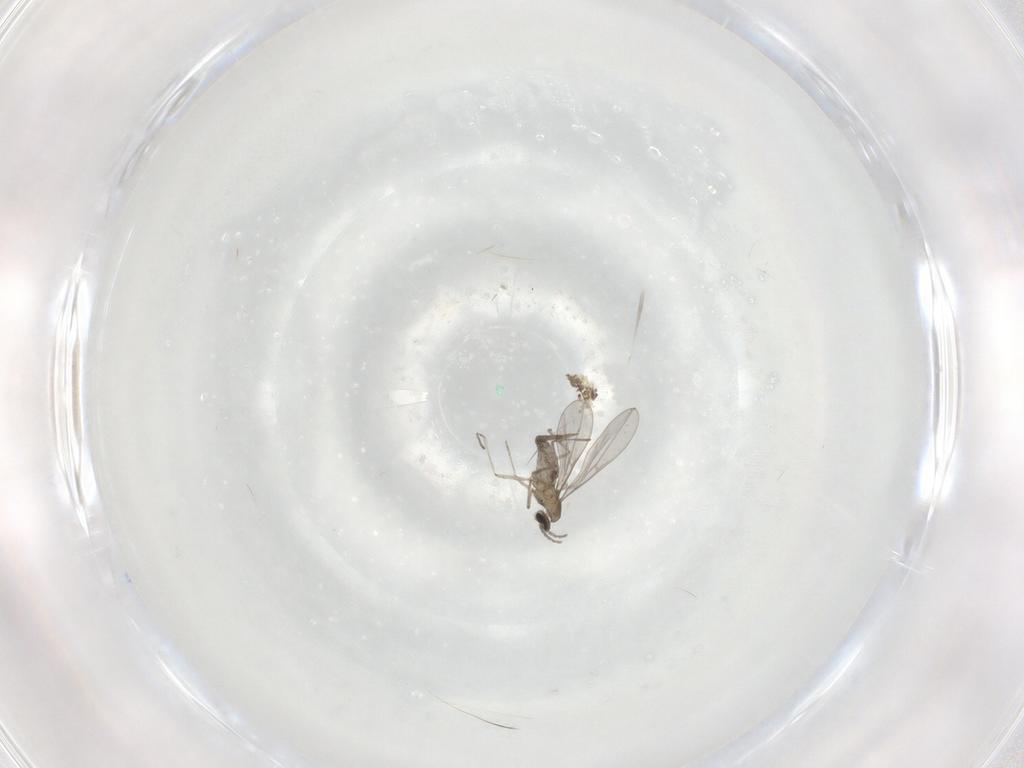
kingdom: Animalia
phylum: Arthropoda
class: Insecta
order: Diptera
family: Chironomidae
